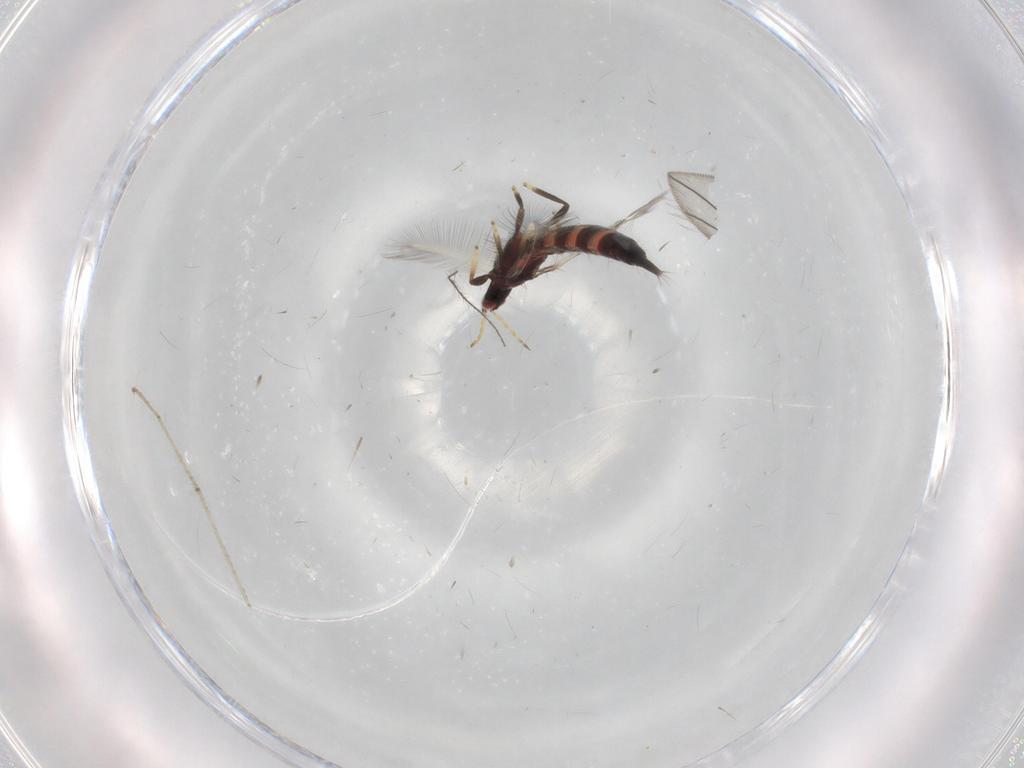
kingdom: Animalia
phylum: Arthropoda
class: Insecta
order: Thysanoptera
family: Phlaeothripidae
